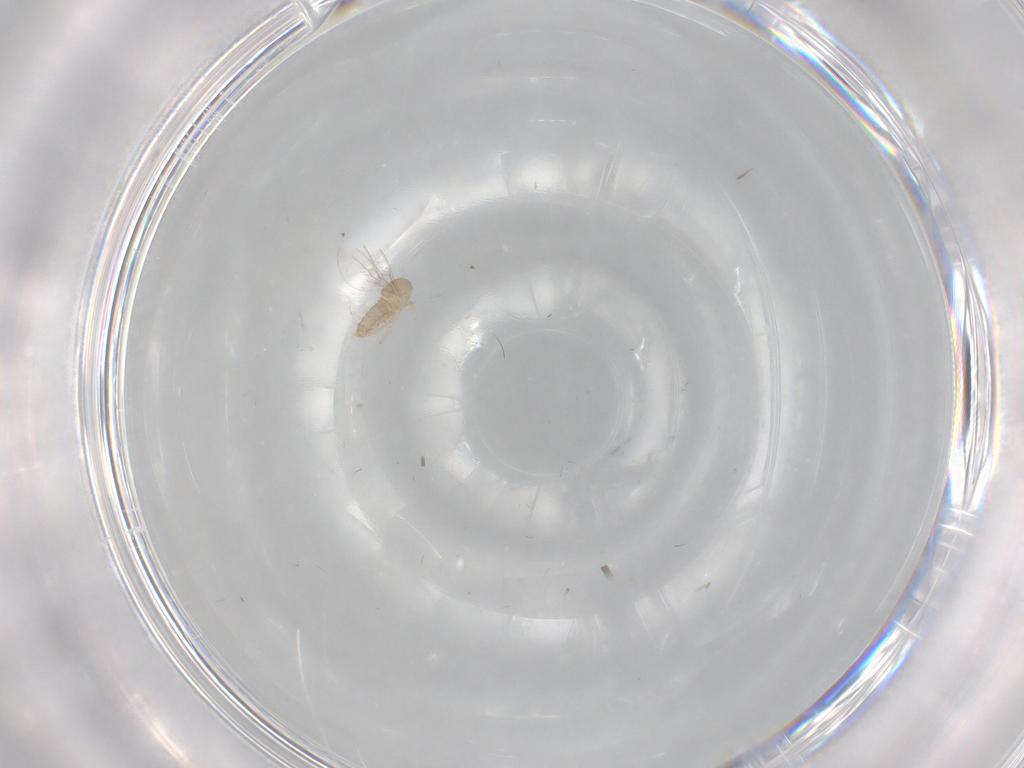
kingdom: Animalia
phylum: Arthropoda
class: Insecta
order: Diptera
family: Cecidomyiidae
